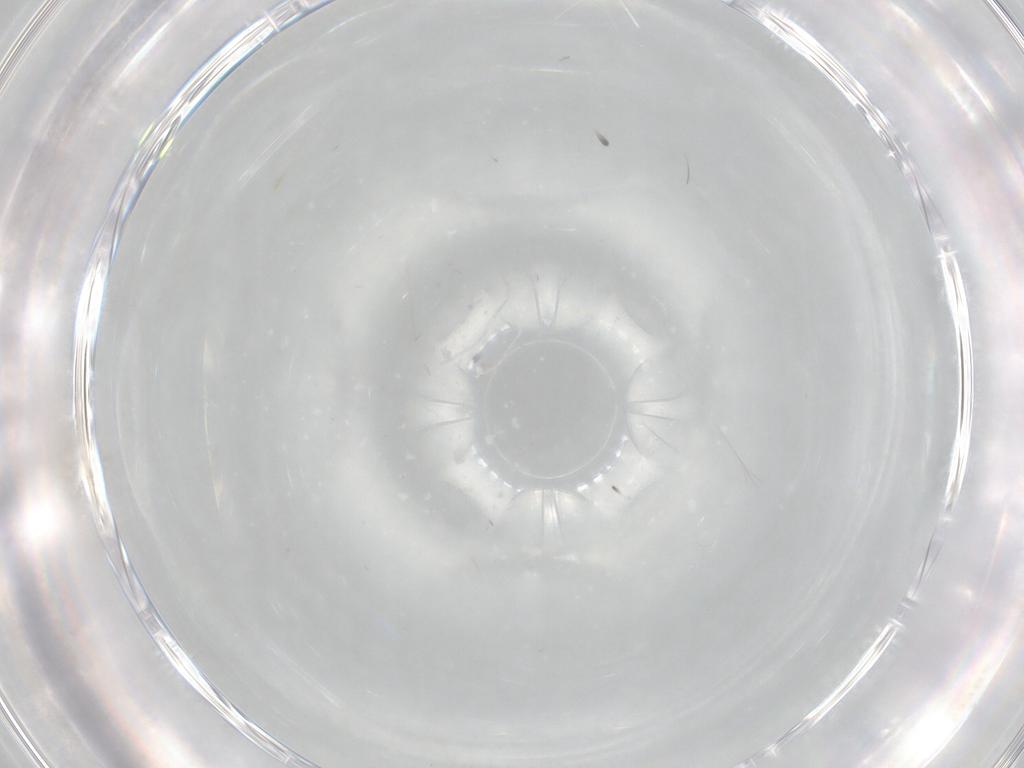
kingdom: Animalia
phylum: Arthropoda
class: Insecta
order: Diptera
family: Cecidomyiidae
